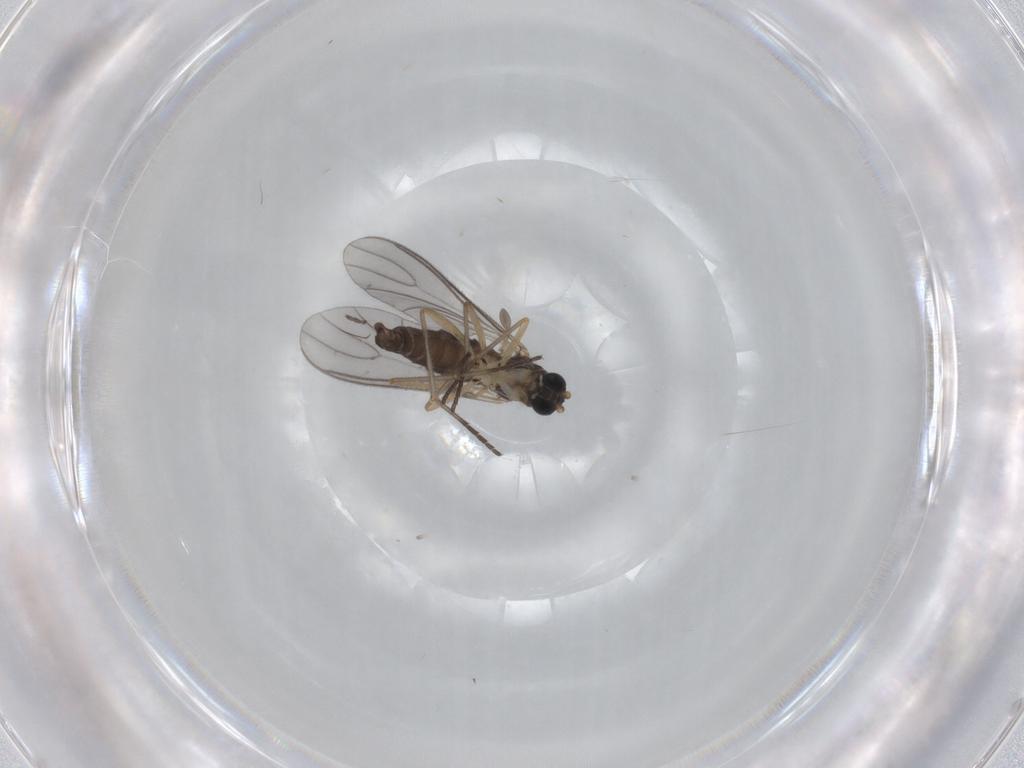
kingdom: Animalia
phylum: Arthropoda
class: Insecta
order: Diptera
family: Sciaridae
